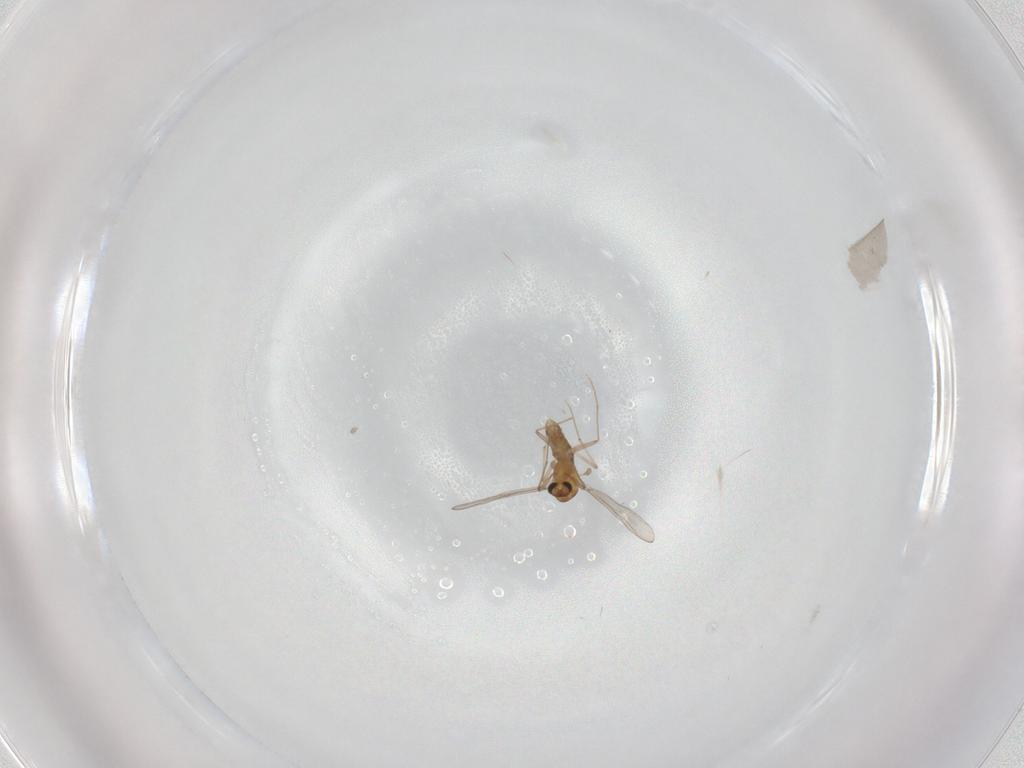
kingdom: Animalia
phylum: Arthropoda
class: Insecta
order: Diptera
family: Chironomidae
